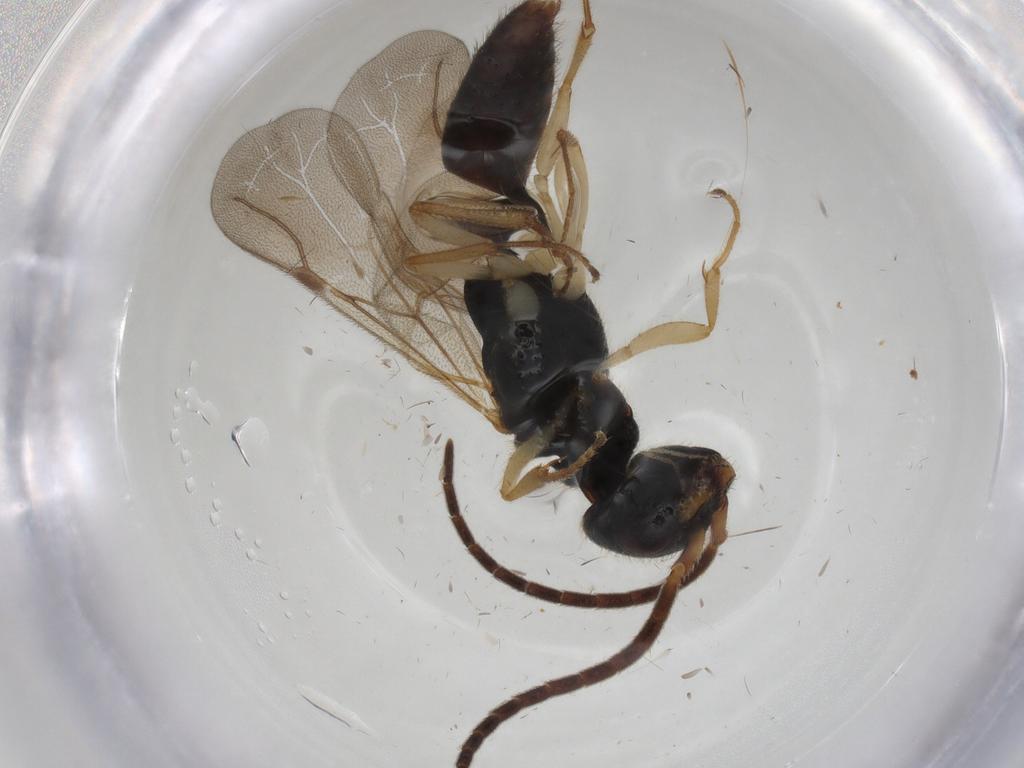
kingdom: Animalia
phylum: Arthropoda
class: Insecta
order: Hymenoptera
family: Bethylidae
